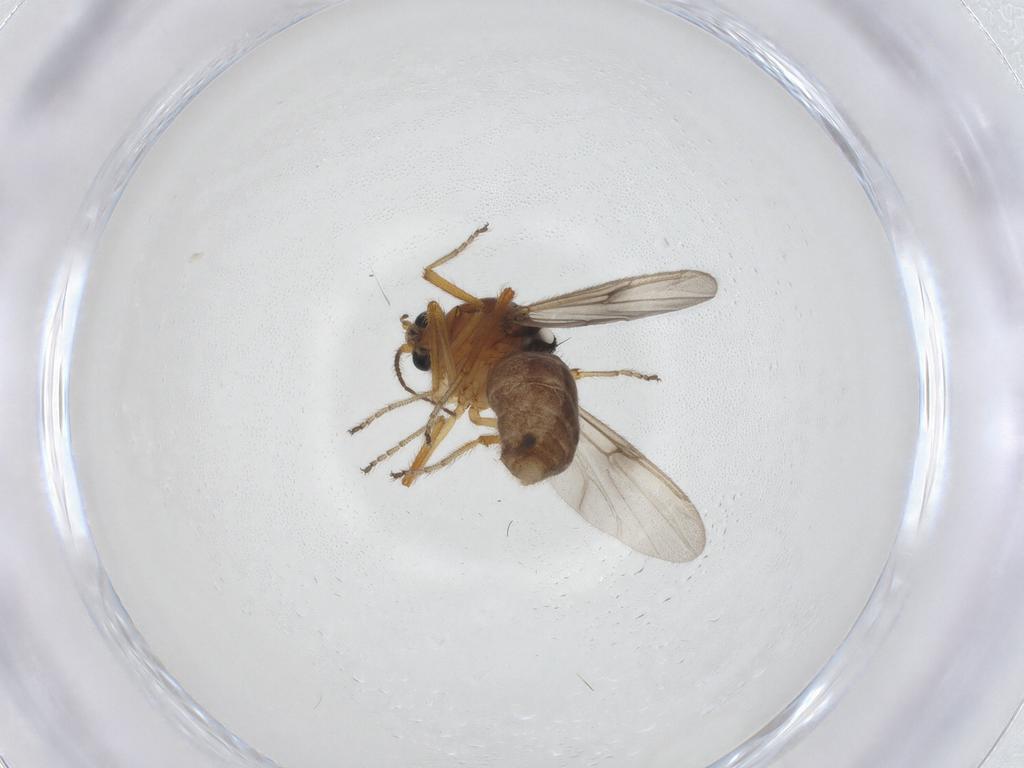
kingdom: Animalia
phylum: Arthropoda
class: Insecta
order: Diptera
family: Ceratopogonidae
